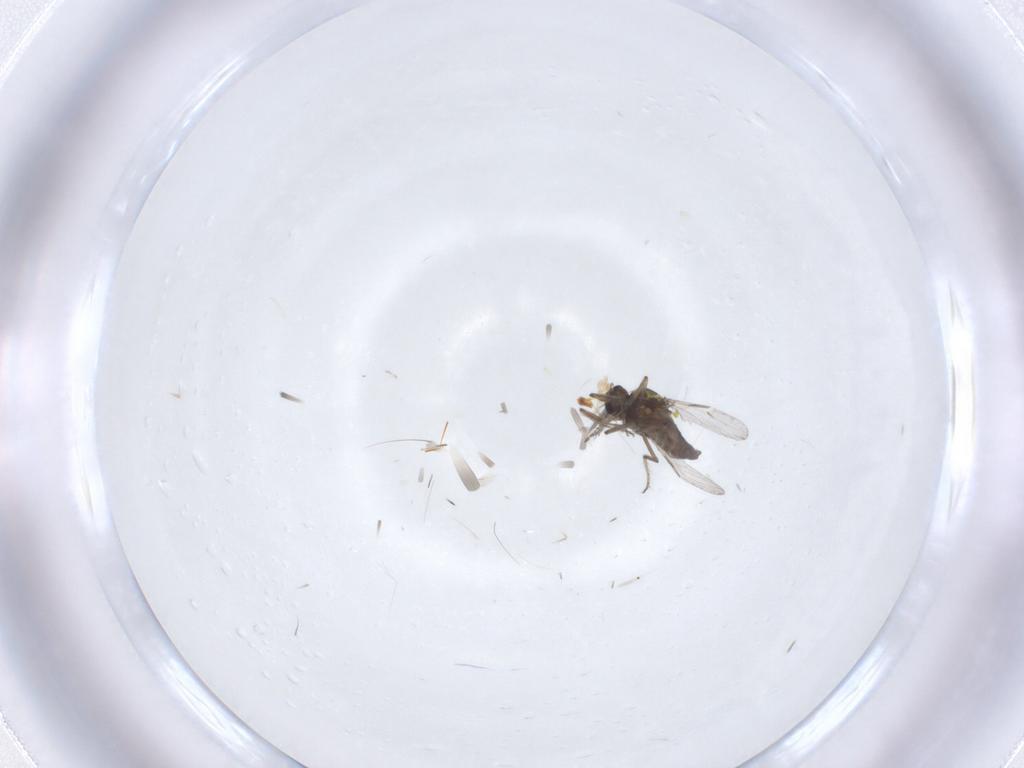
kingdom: Animalia
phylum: Arthropoda
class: Insecta
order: Diptera
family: Ceratopogonidae
